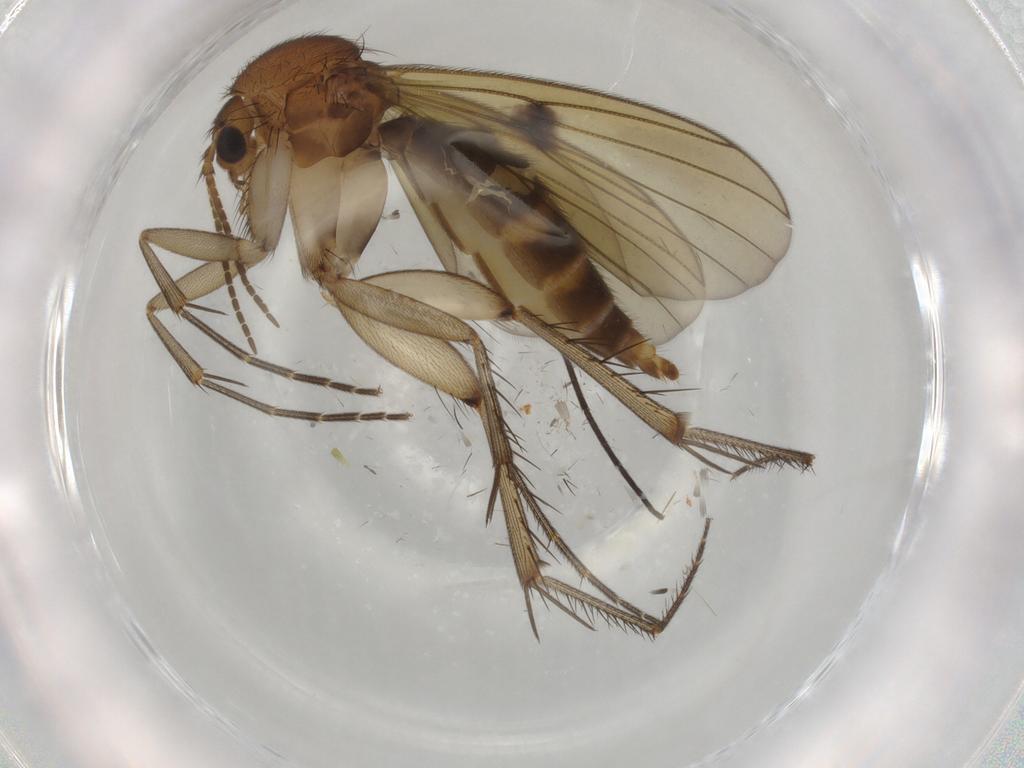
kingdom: Animalia
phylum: Arthropoda
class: Insecta
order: Diptera
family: Mycetophilidae
